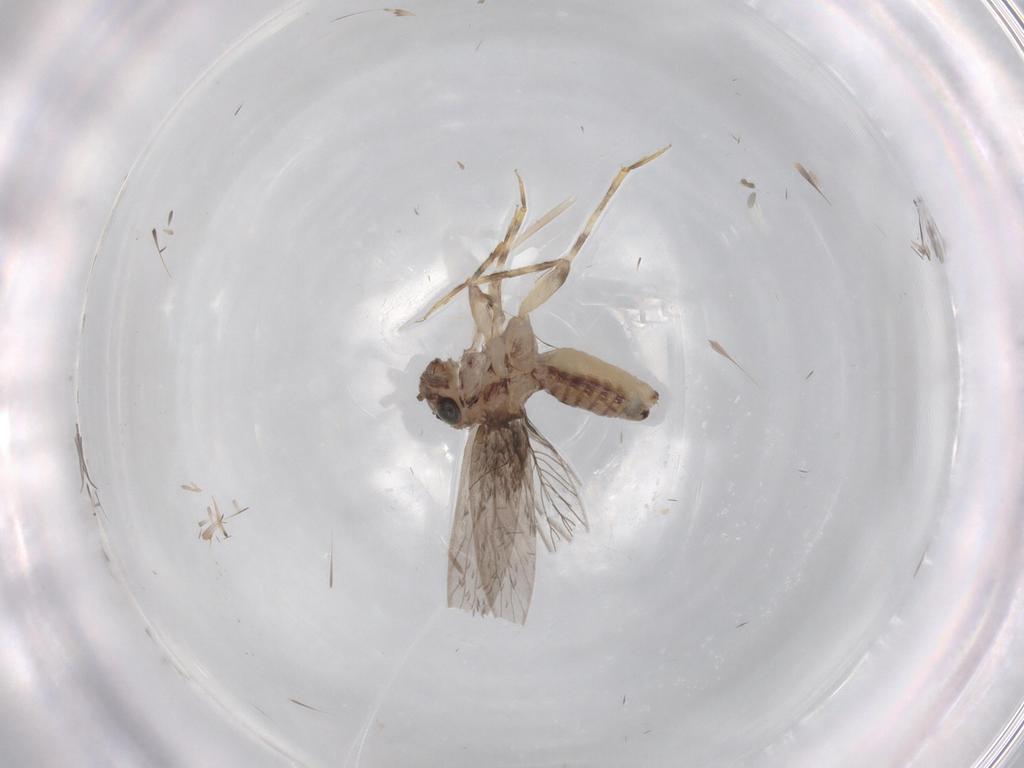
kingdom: Animalia
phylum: Arthropoda
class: Insecta
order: Psocodea
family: Lepidopsocidae
